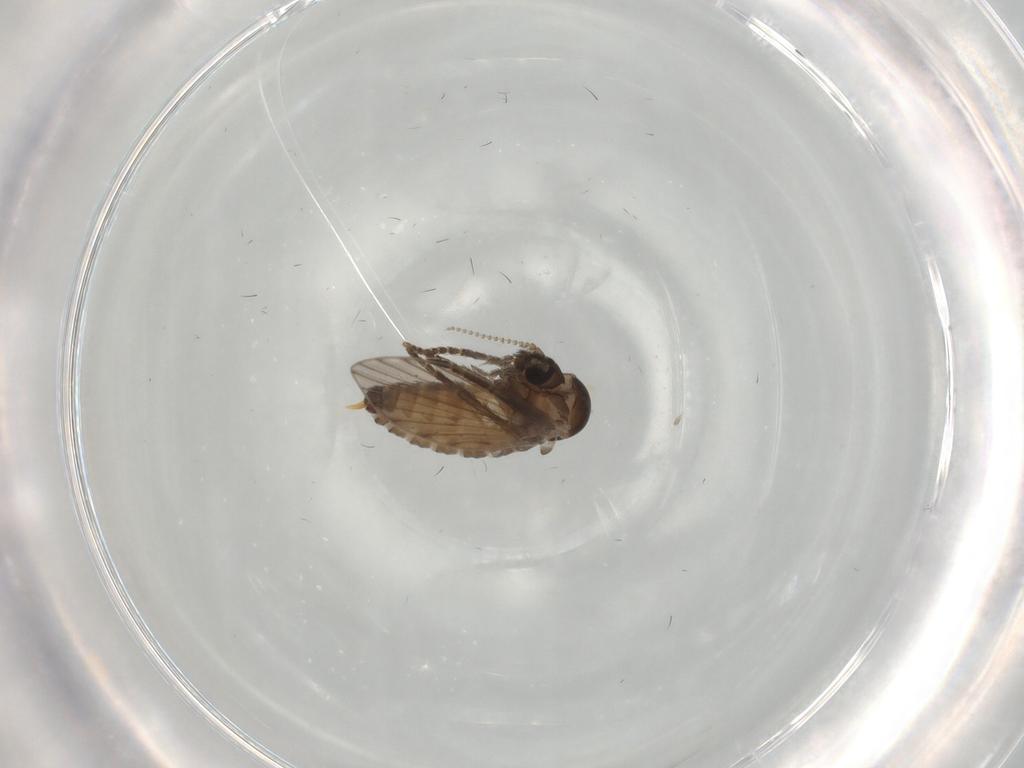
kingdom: Animalia
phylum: Arthropoda
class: Insecta
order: Diptera
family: Psychodidae
